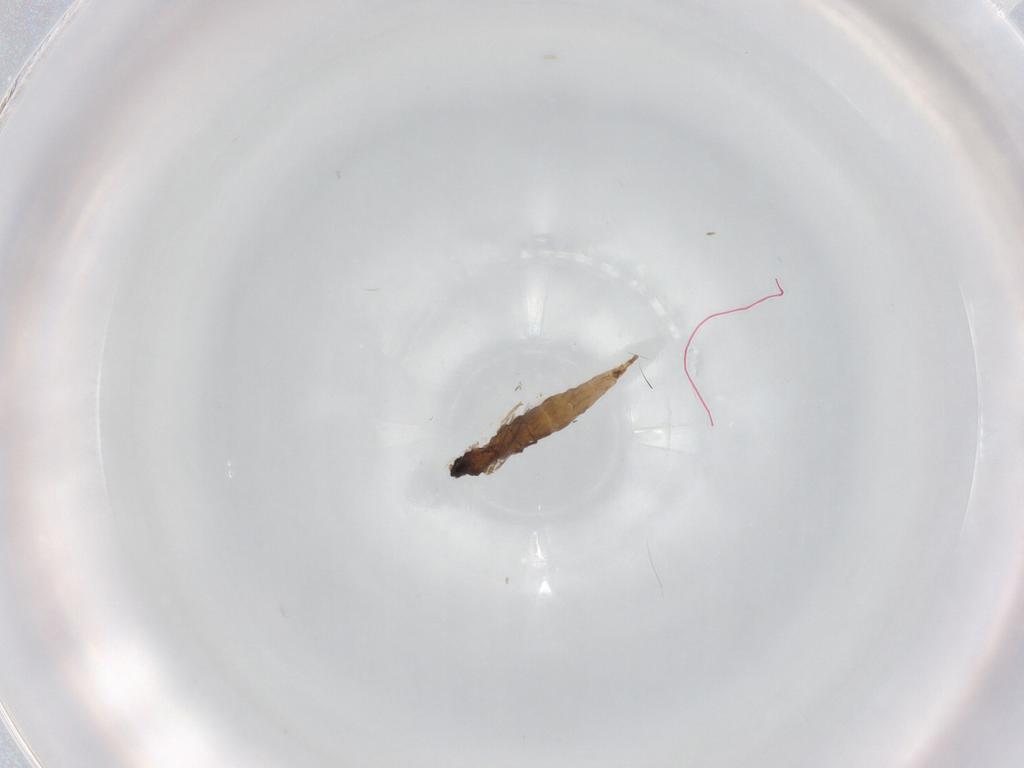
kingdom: Animalia
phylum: Arthropoda
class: Insecta
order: Diptera
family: Cecidomyiidae
